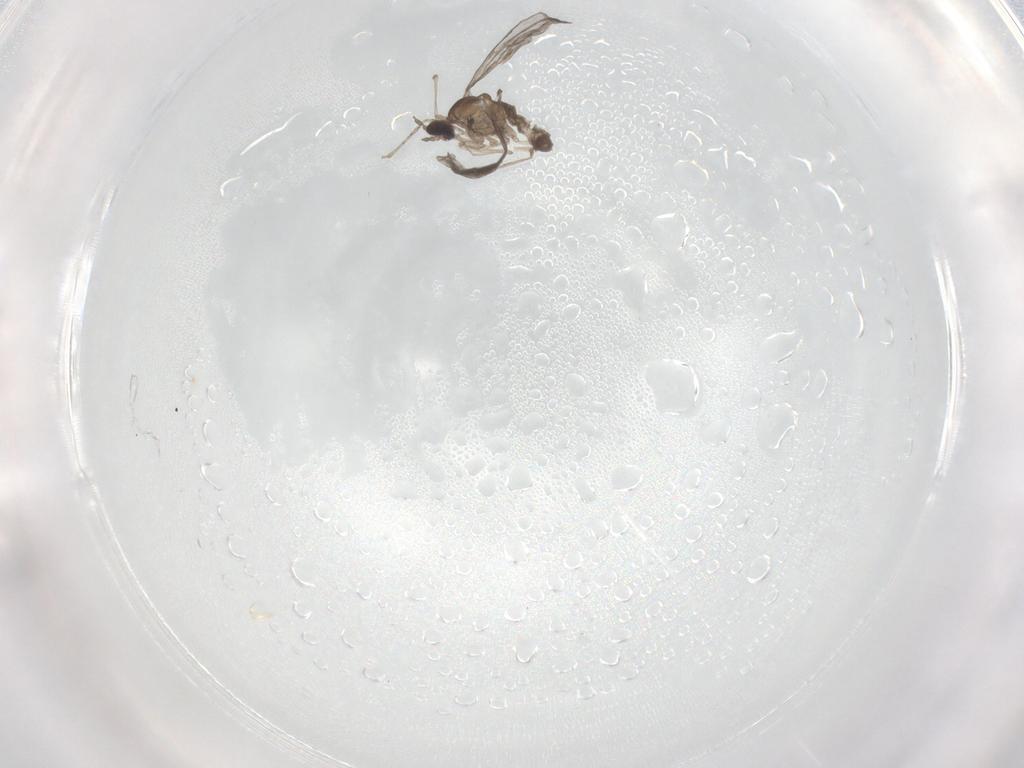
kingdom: Animalia
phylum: Arthropoda
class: Insecta
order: Diptera
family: Cecidomyiidae
